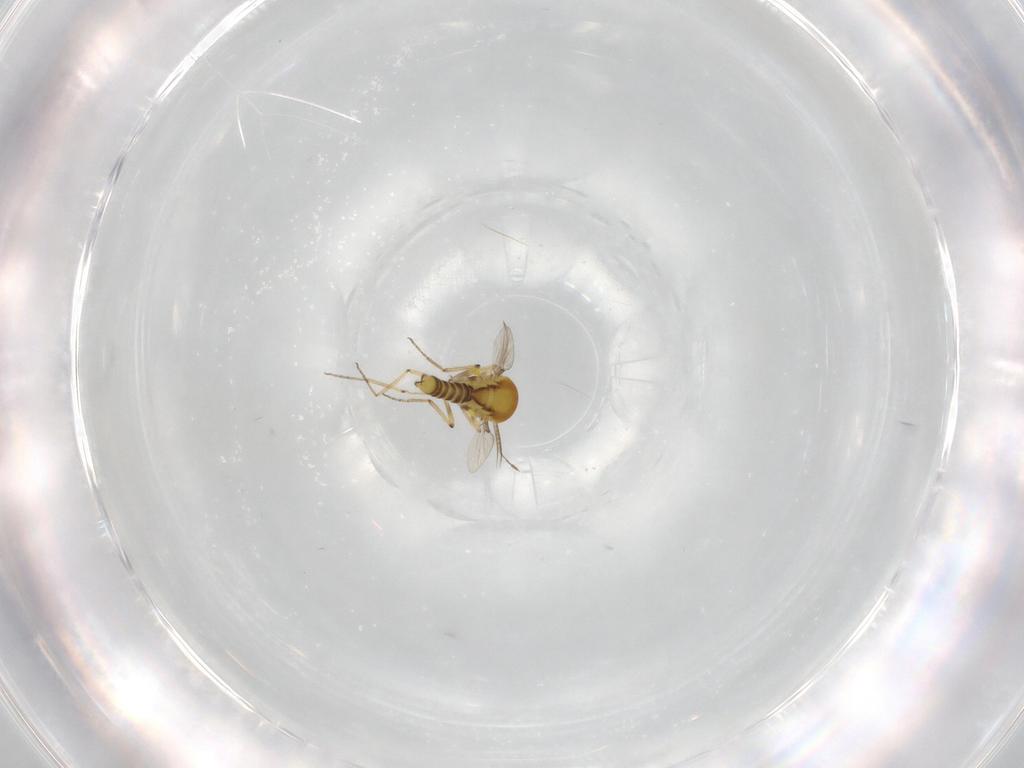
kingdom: Animalia
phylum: Arthropoda
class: Insecta
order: Diptera
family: Ceratopogonidae
